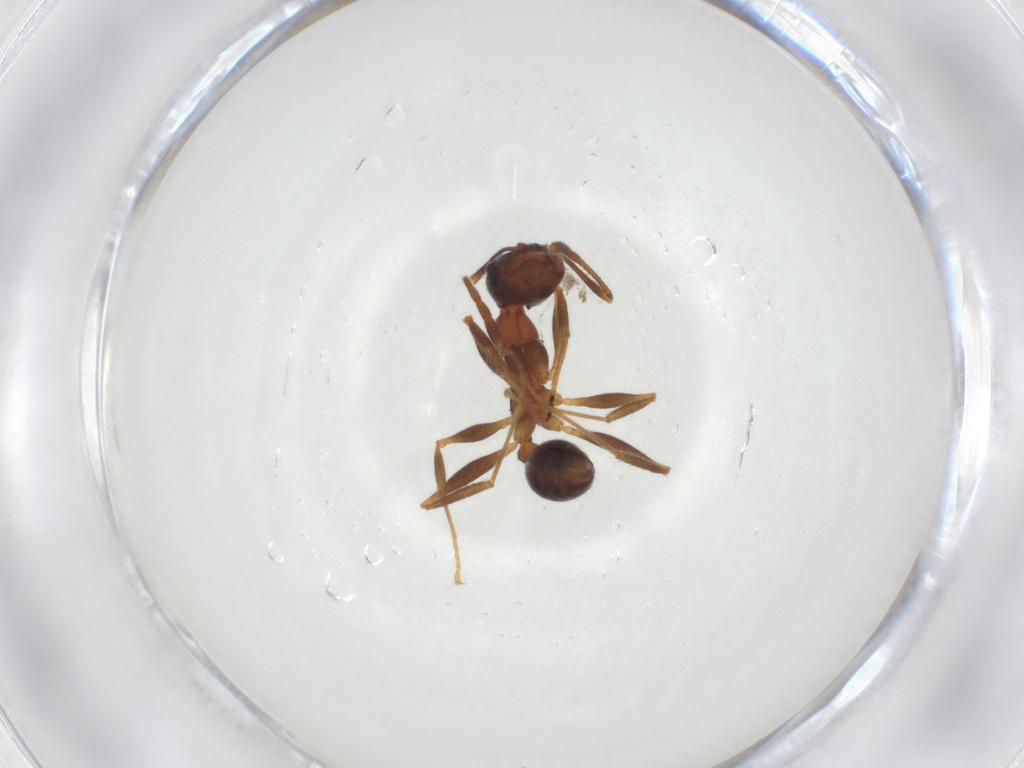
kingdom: Animalia
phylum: Arthropoda
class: Insecta
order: Hymenoptera
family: Formicidae
